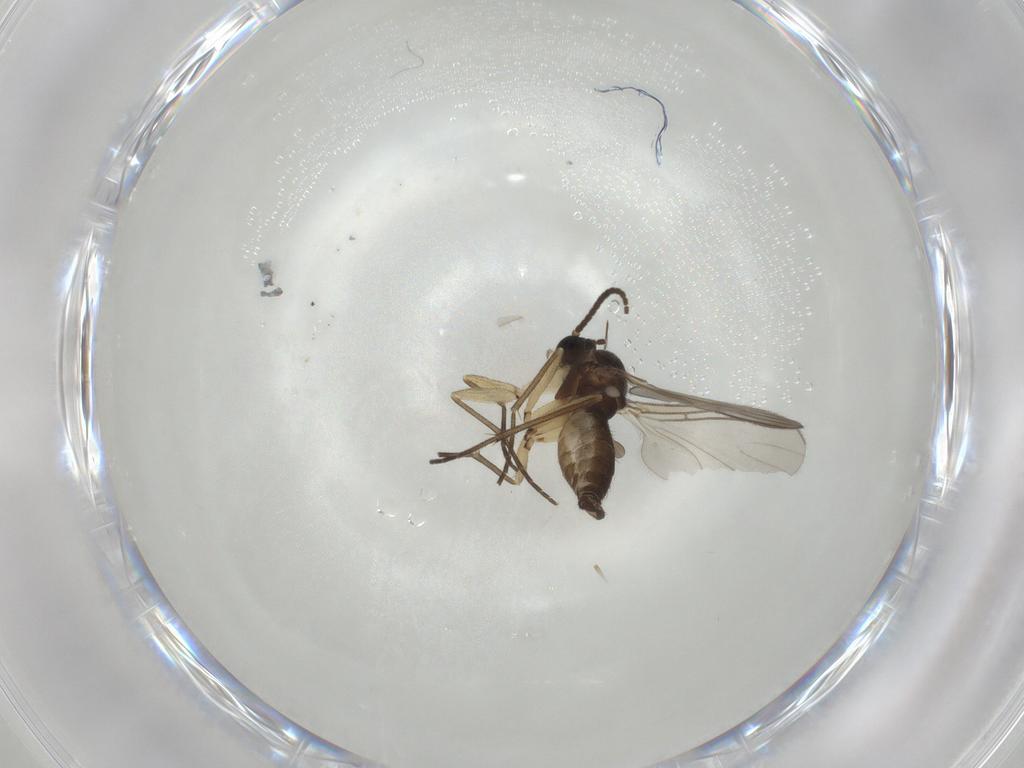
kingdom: Animalia
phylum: Arthropoda
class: Insecta
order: Diptera
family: Sciaridae
